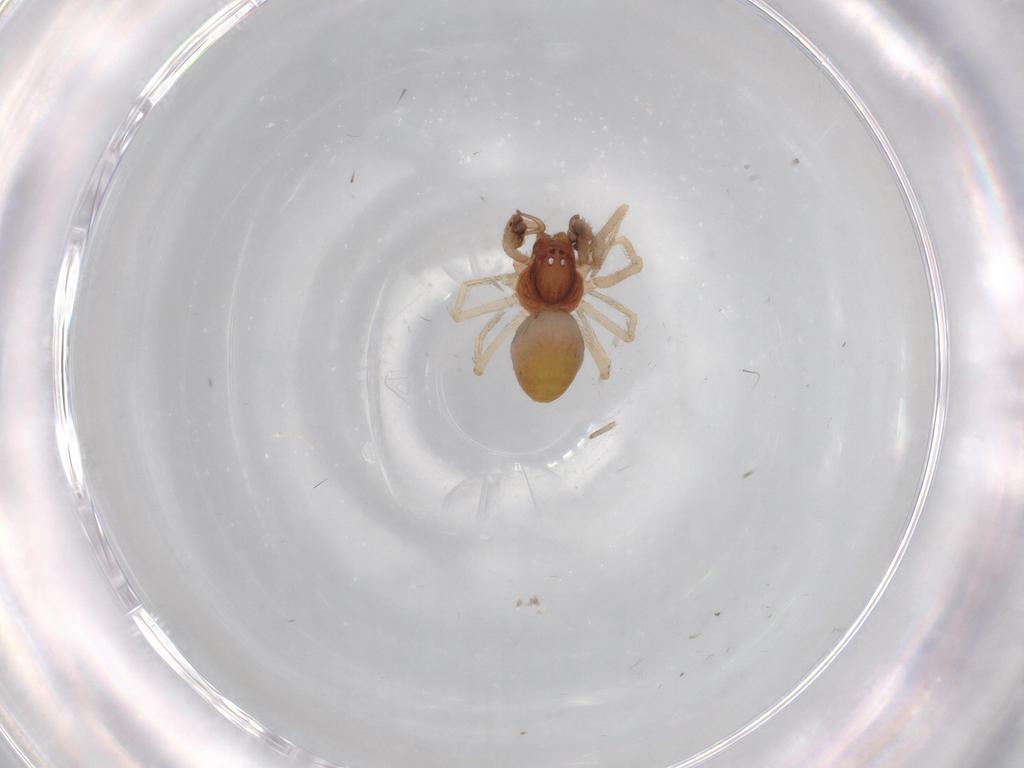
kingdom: Animalia
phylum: Arthropoda
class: Arachnida
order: Araneae
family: Dictynidae
